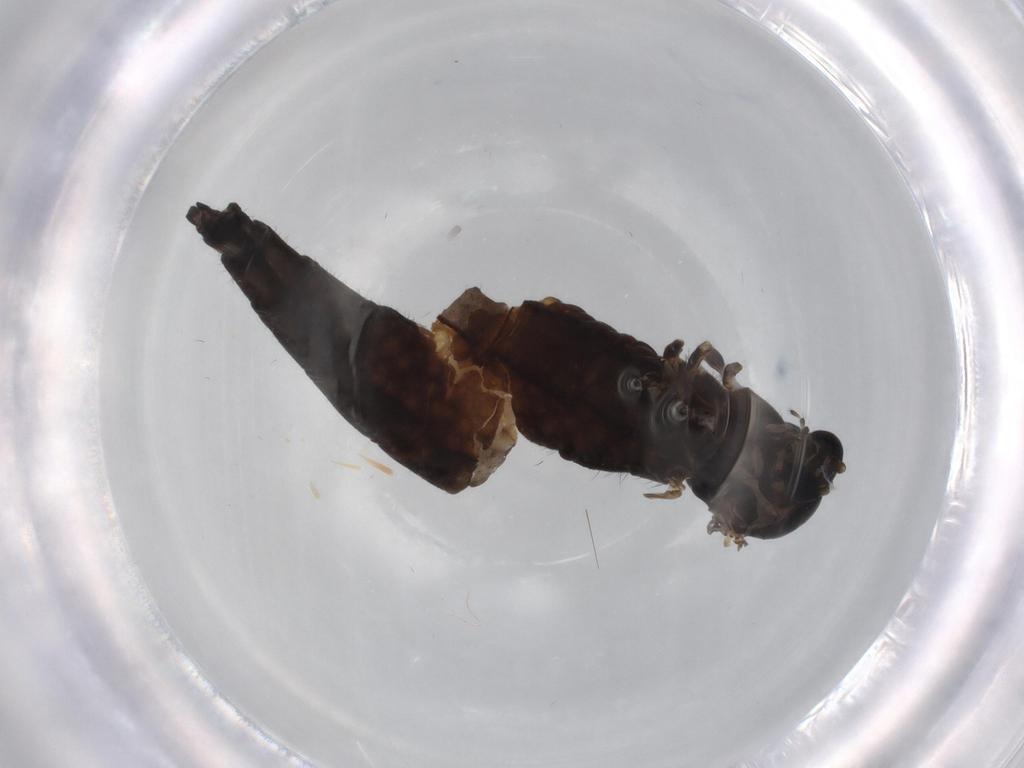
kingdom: Animalia
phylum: Arthropoda
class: Insecta
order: Diptera
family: Sciaridae
